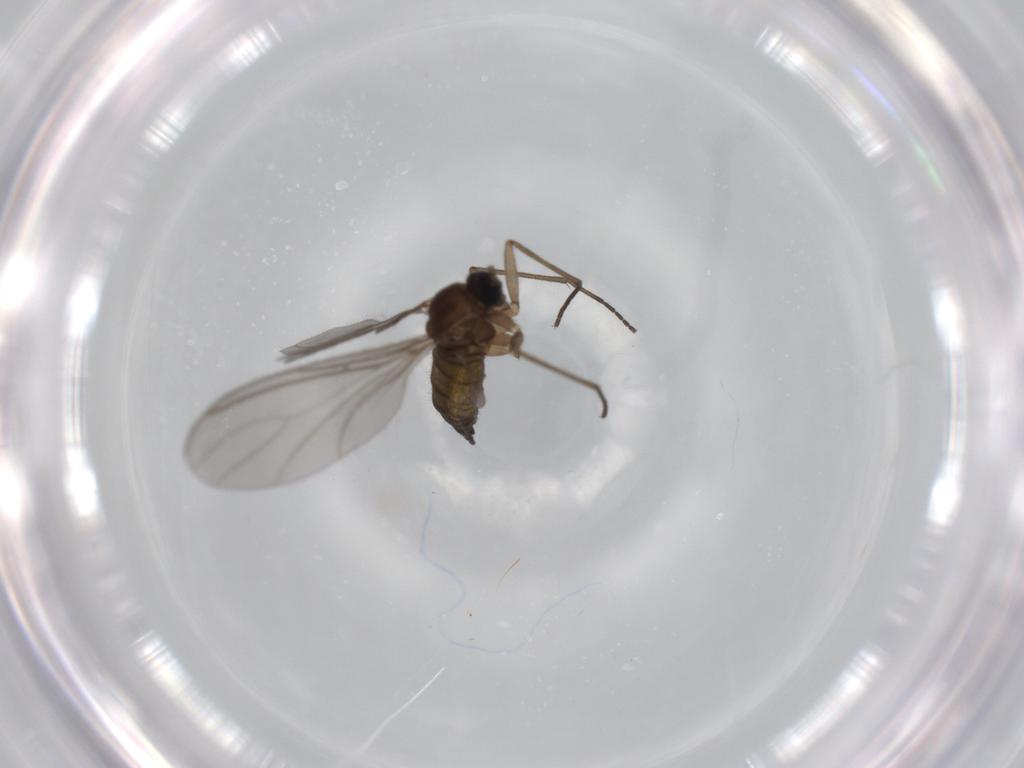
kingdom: Animalia
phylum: Arthropoda
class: Insecta
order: Diptera
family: Sciaridae
